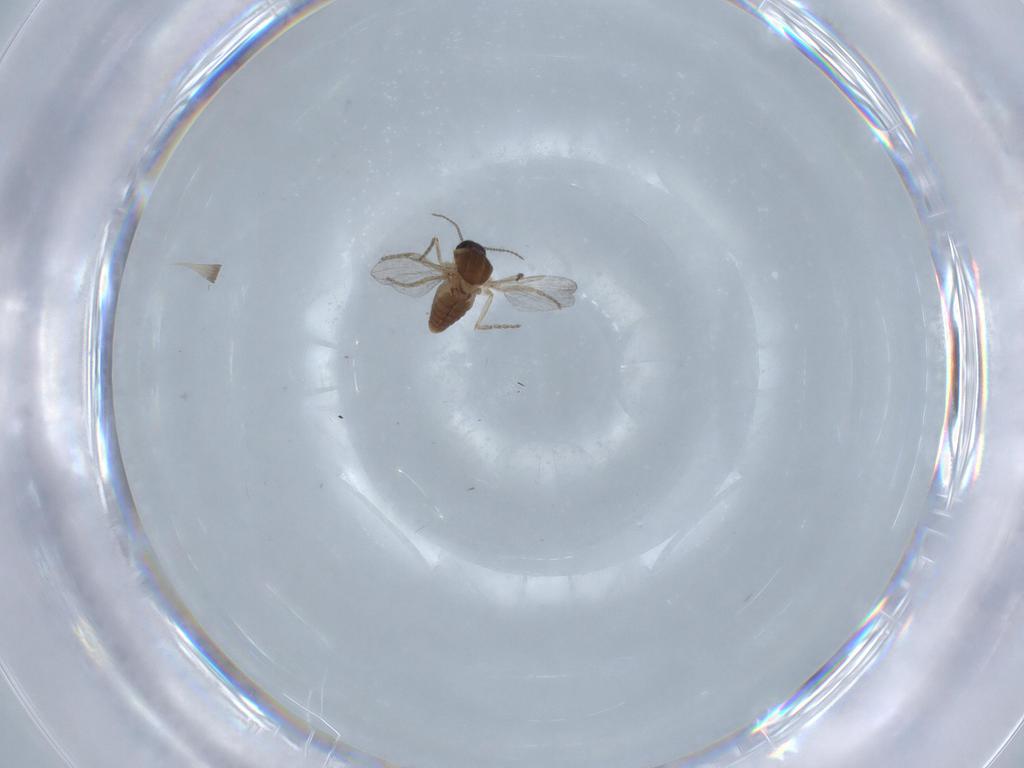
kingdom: Animalia
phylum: Arthropoda
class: Insecta
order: Diptera
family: Ceratopogonidae
